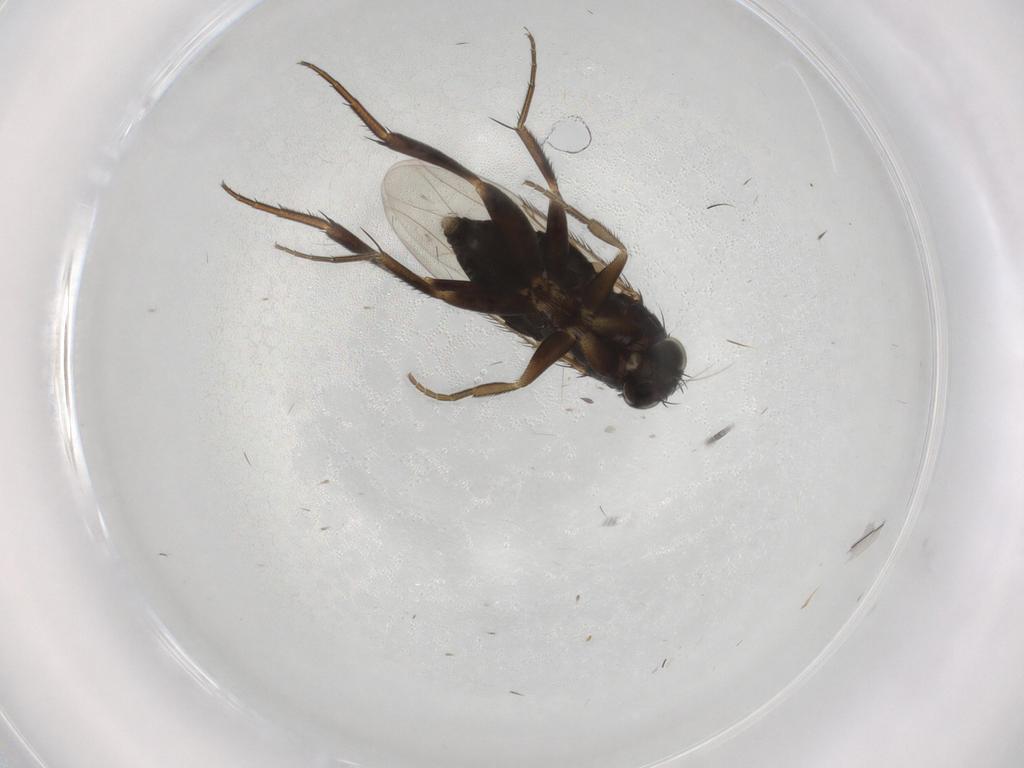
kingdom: Animalia
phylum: Arthropoda
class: Insecta
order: Diptera
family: Phoridae
